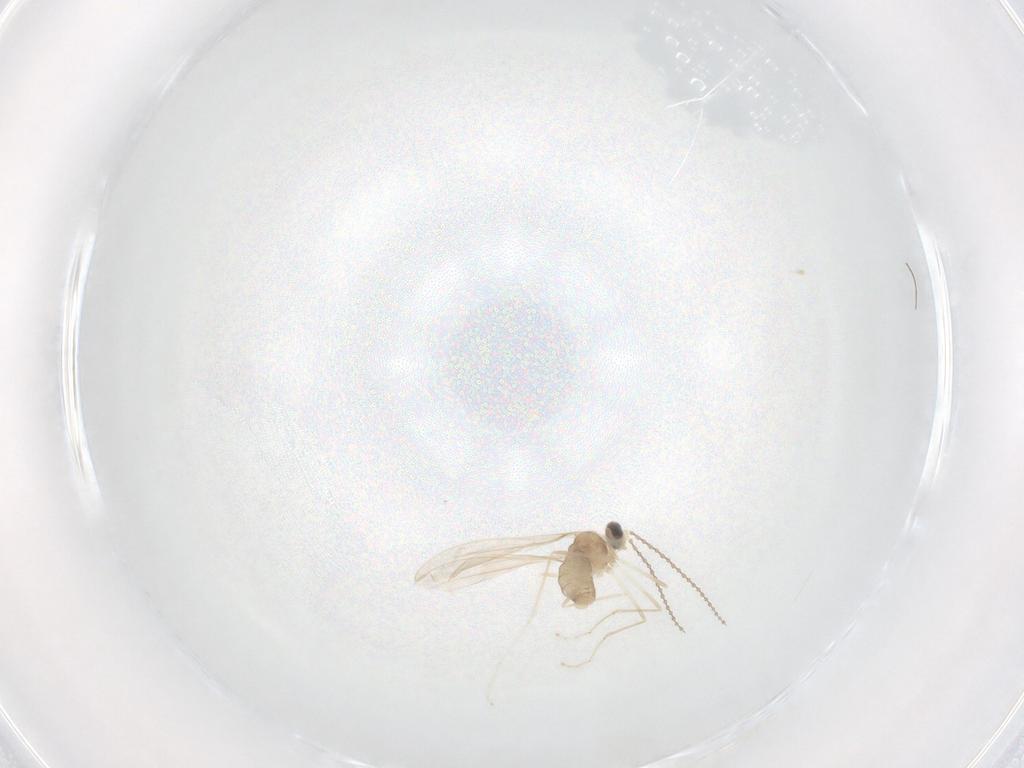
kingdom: Animalia
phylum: Arthropoda
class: Insecta
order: Diptera
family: Cecidomyiidae
